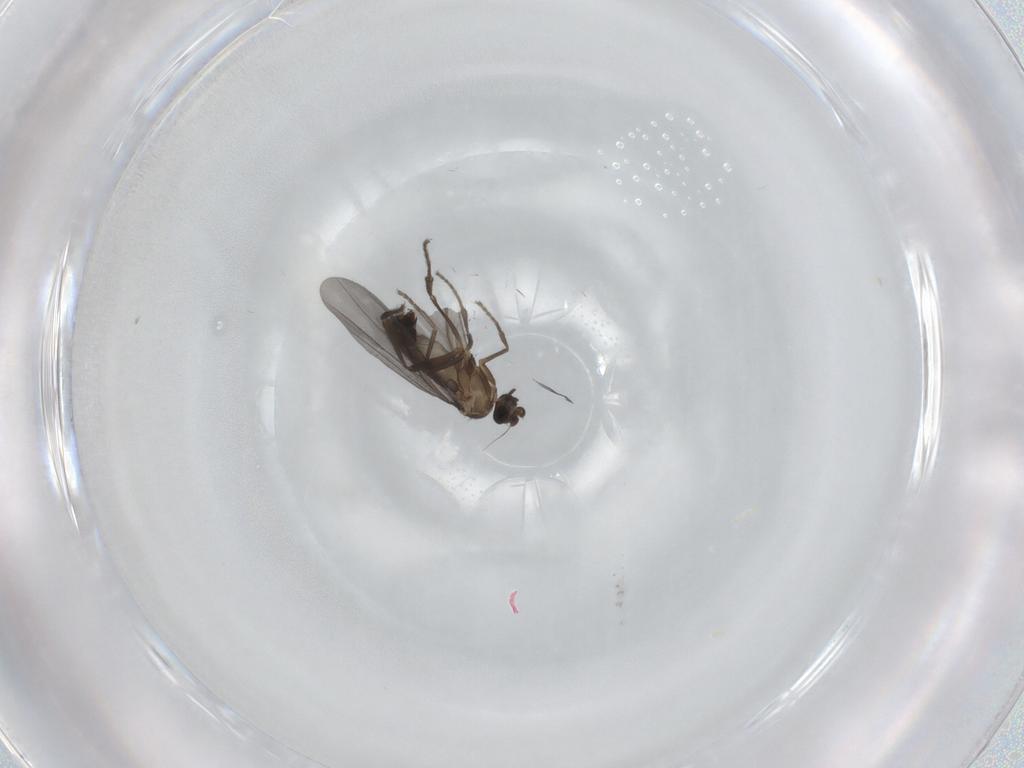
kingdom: Animalia
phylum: Arthropoda
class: Insecta
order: Diptera
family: Phoridae
